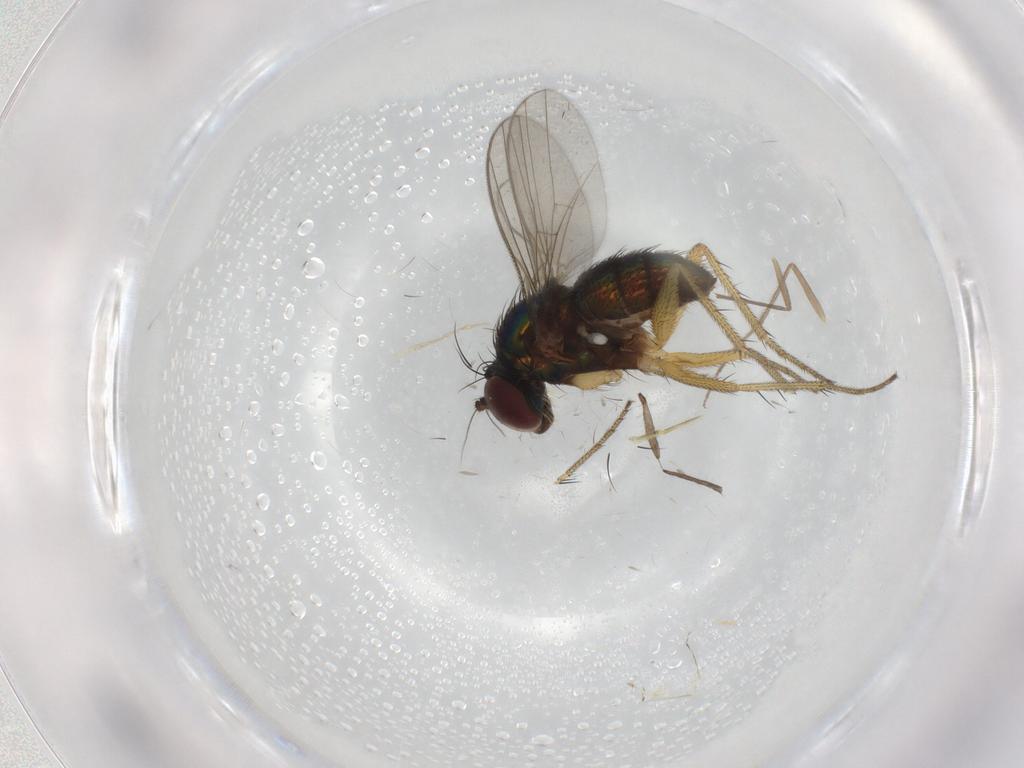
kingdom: Animalia
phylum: Arthropoda
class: Insecta
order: Diptera
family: Chironomidae
